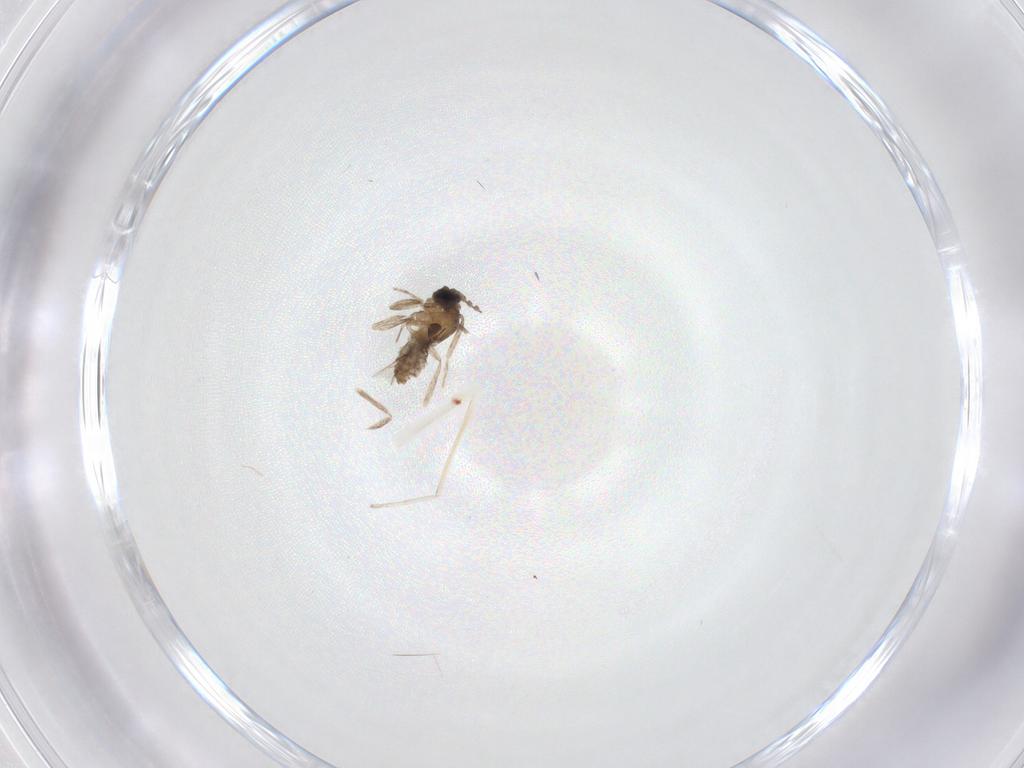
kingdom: Animalia
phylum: Arthropoda
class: Insecta
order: Diptera
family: Cecidomyiidae
